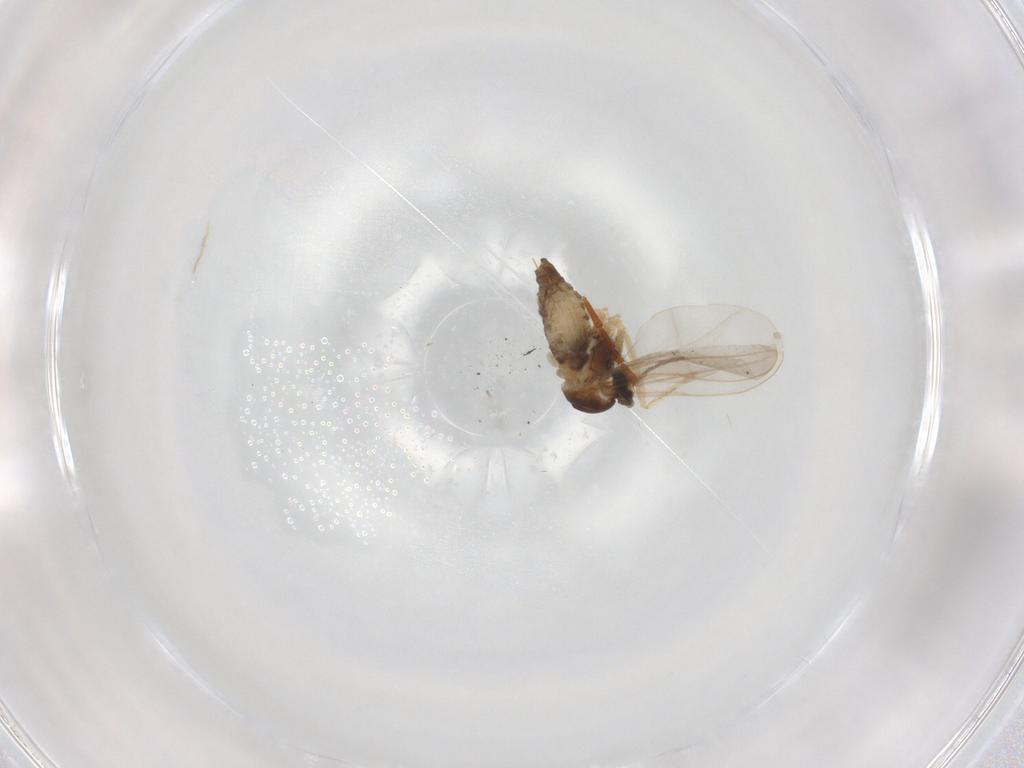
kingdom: Animalia
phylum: Arthropoda
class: Insecta
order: Diptera
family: Cecidomyiidae
